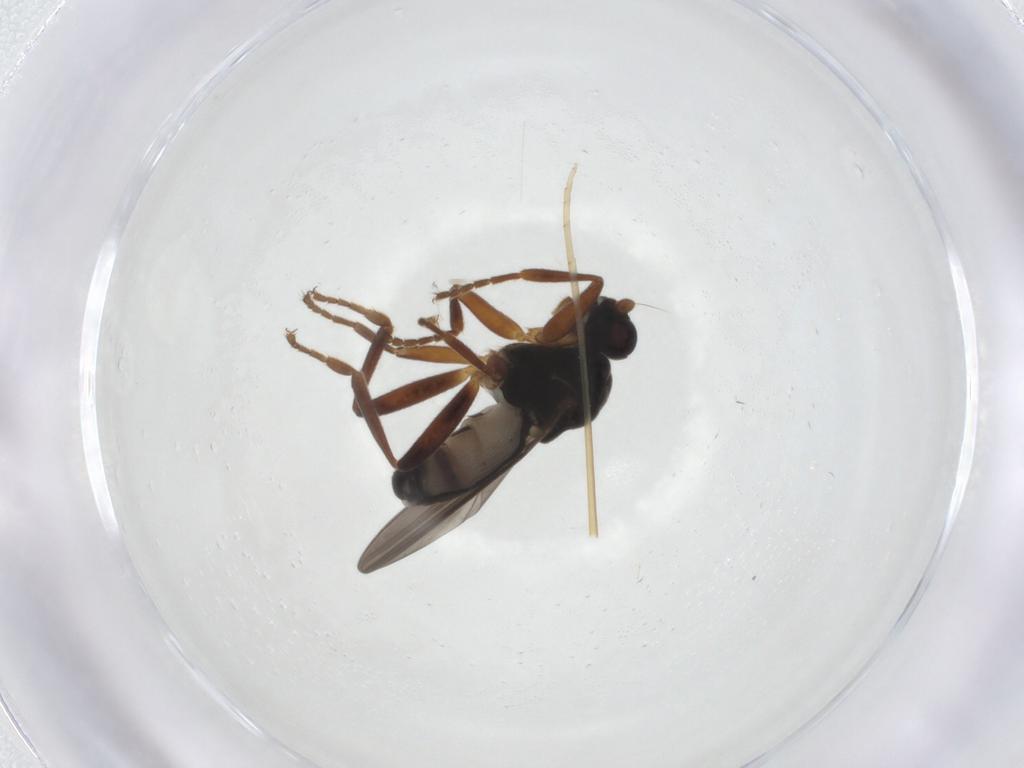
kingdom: Animalia
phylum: Arthropoda
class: Insecta
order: Diptera
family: Sphaeroceridae
